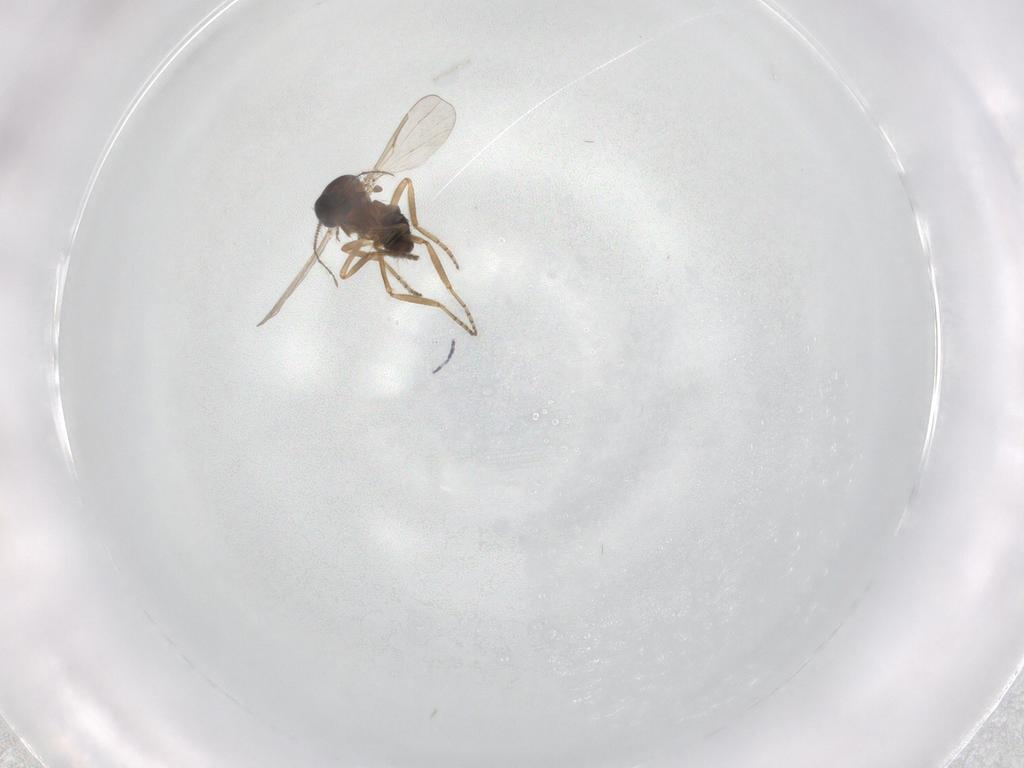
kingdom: Animalia
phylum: Arthropoda
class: Insecta
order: Diptera
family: Ceratopogonidae
